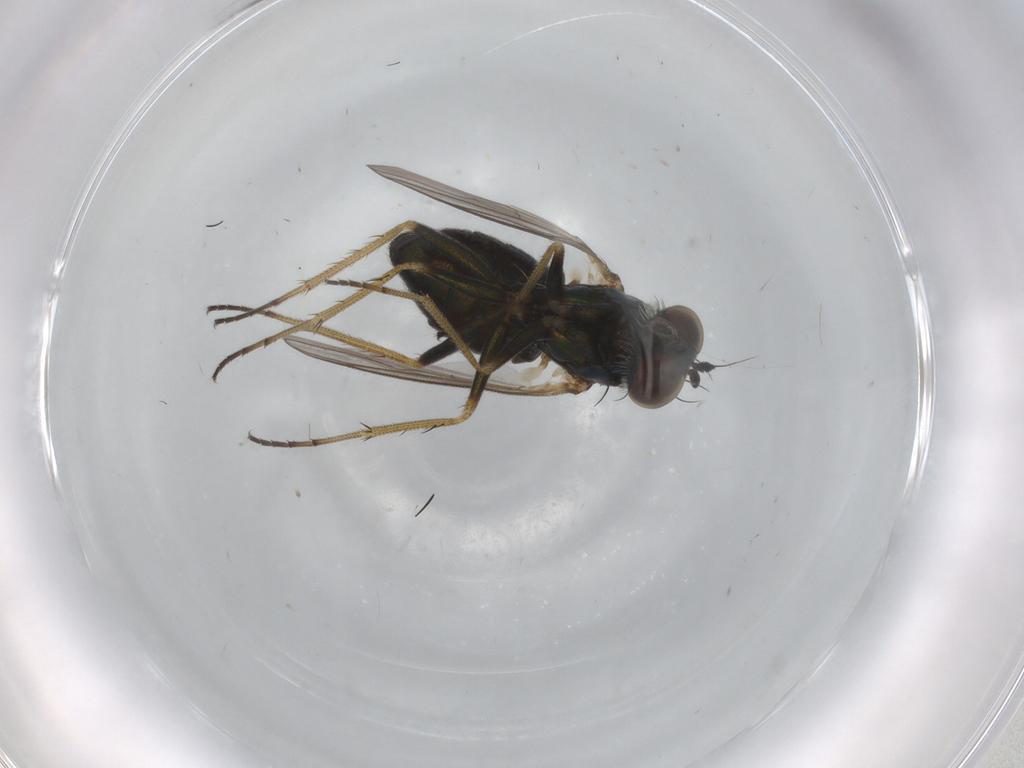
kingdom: Animalia
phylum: Arthropoda
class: Insecta
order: Diptera
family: Dolichopodidae
